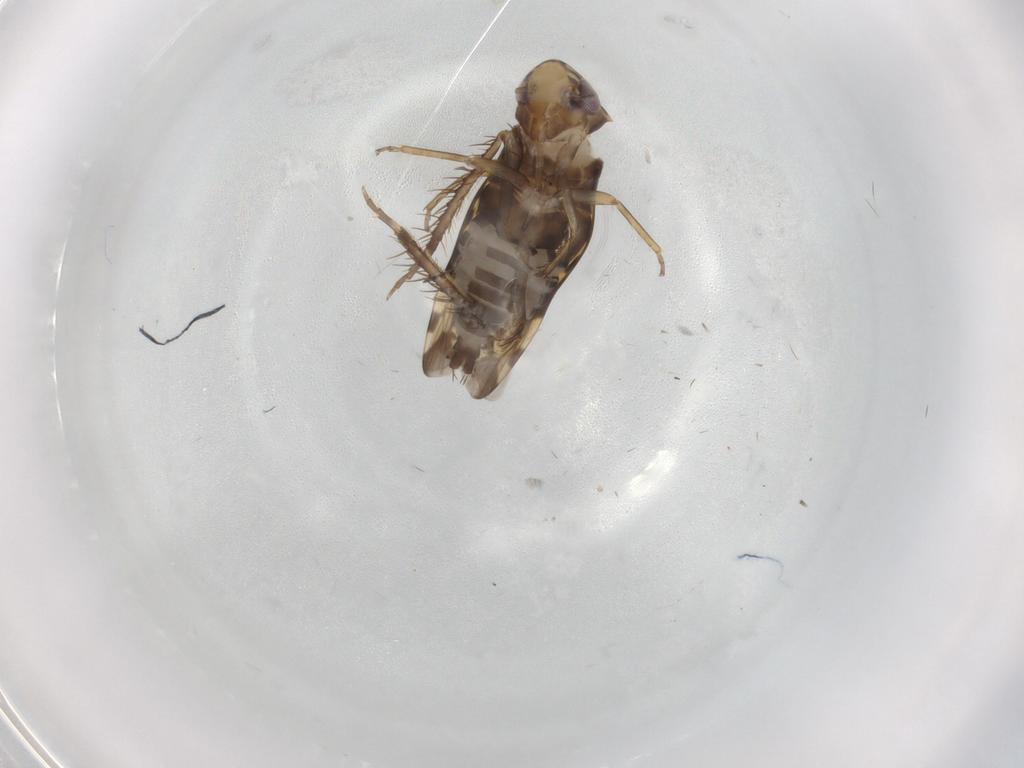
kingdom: Animalia
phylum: Arthropoda
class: Insecta
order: Hemiptera
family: Cicadellidae
